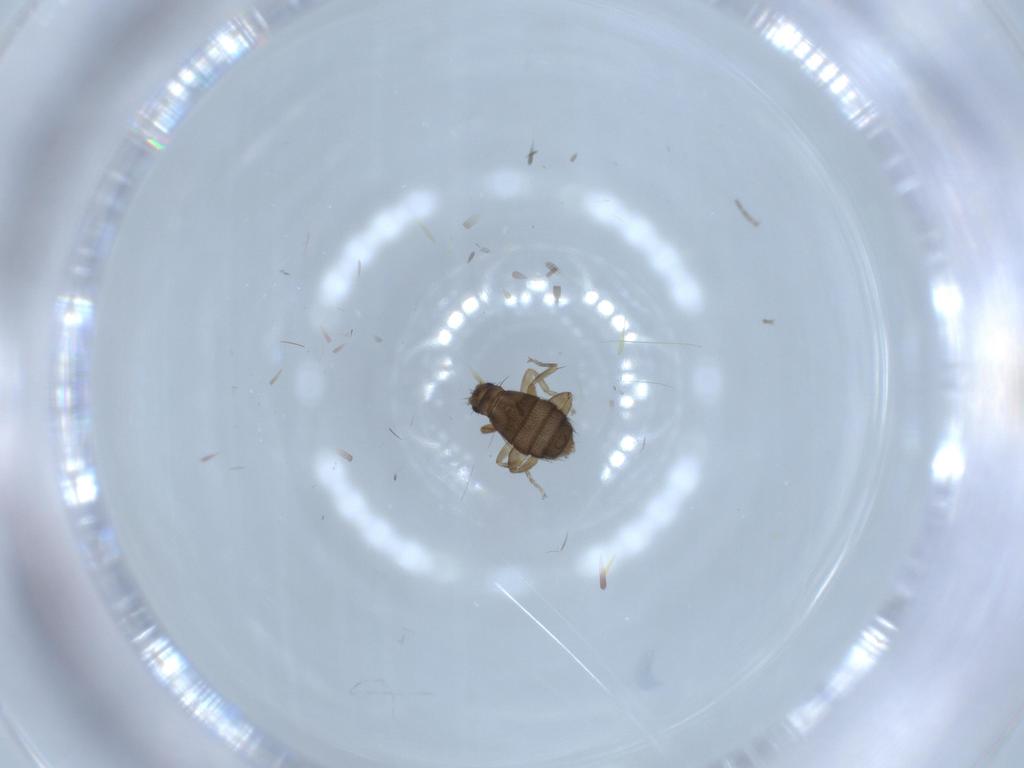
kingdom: Animalia
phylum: Arthropoda
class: Insecta
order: Diptera
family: Phoridae
